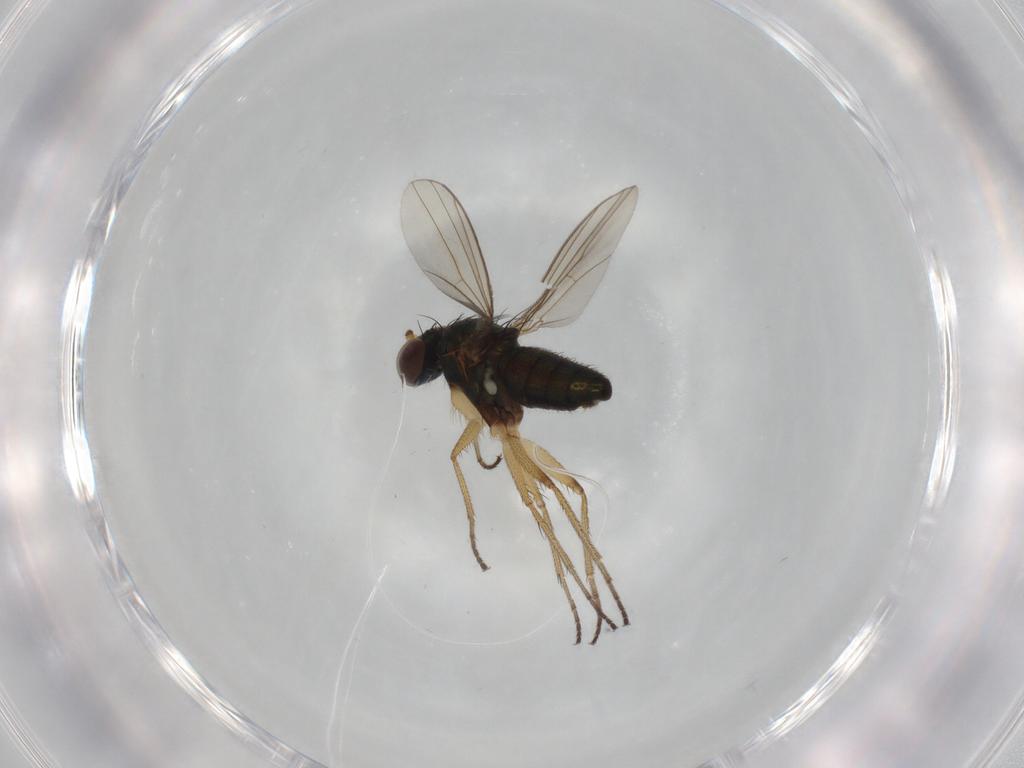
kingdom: Animalia
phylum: Arthropoda
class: Insecta
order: Diptera
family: Dolichopodidae
